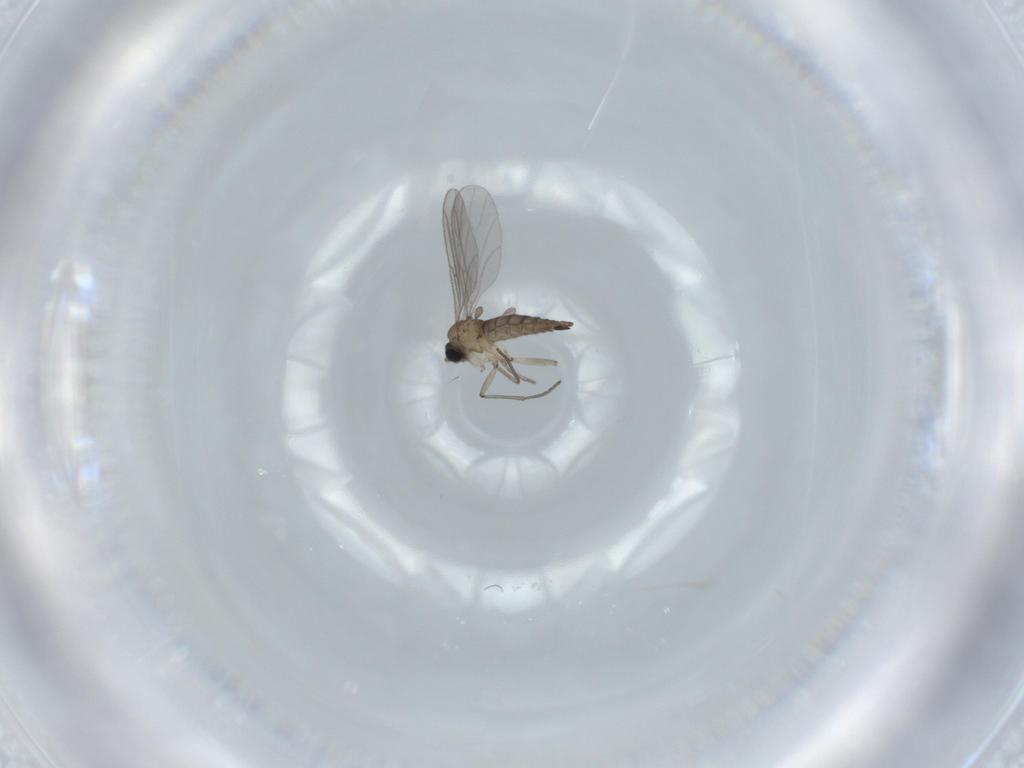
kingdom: Animalia
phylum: Arthropoda
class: Insecta
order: Diptera
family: Sciaridae
